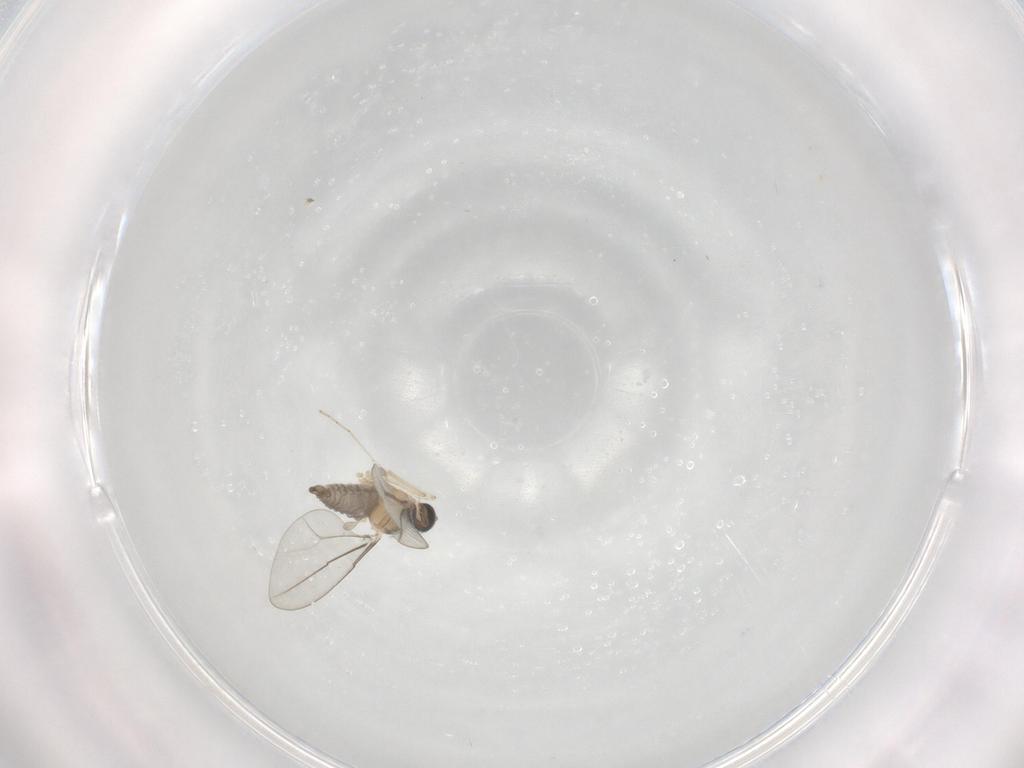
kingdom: Animalia
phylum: Arthropoda
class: Insecta
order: Diptera
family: Cecidomyiidae
